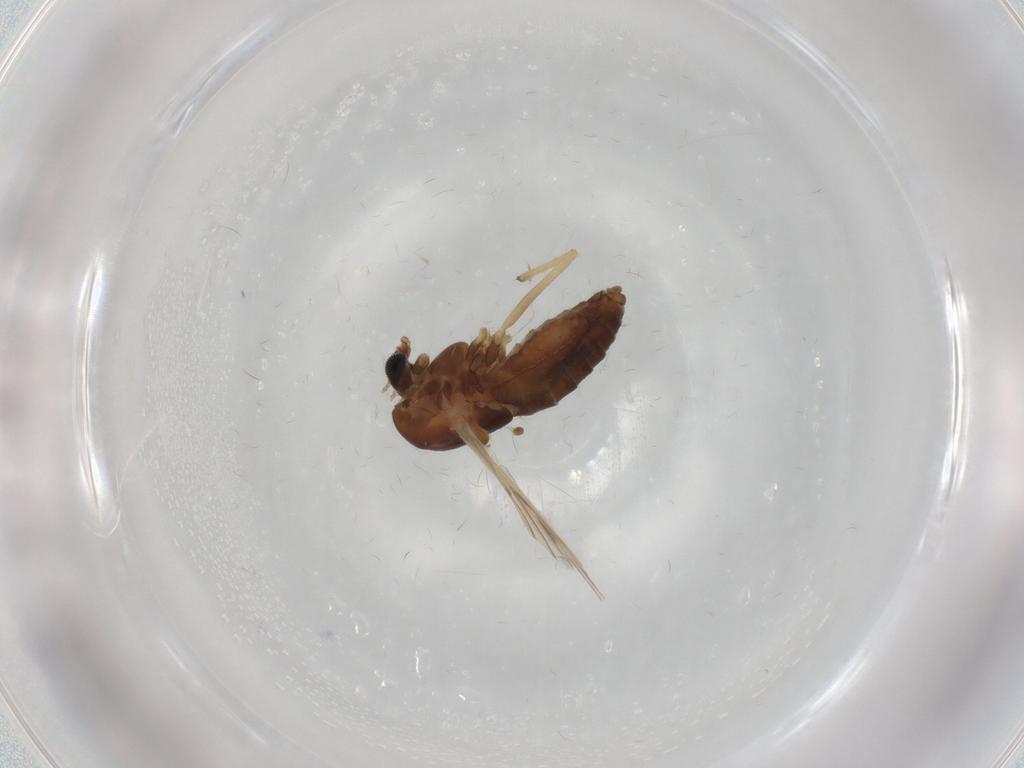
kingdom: Animalia
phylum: Arthropoda
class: Insecta
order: Diptera
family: Chironomidae
